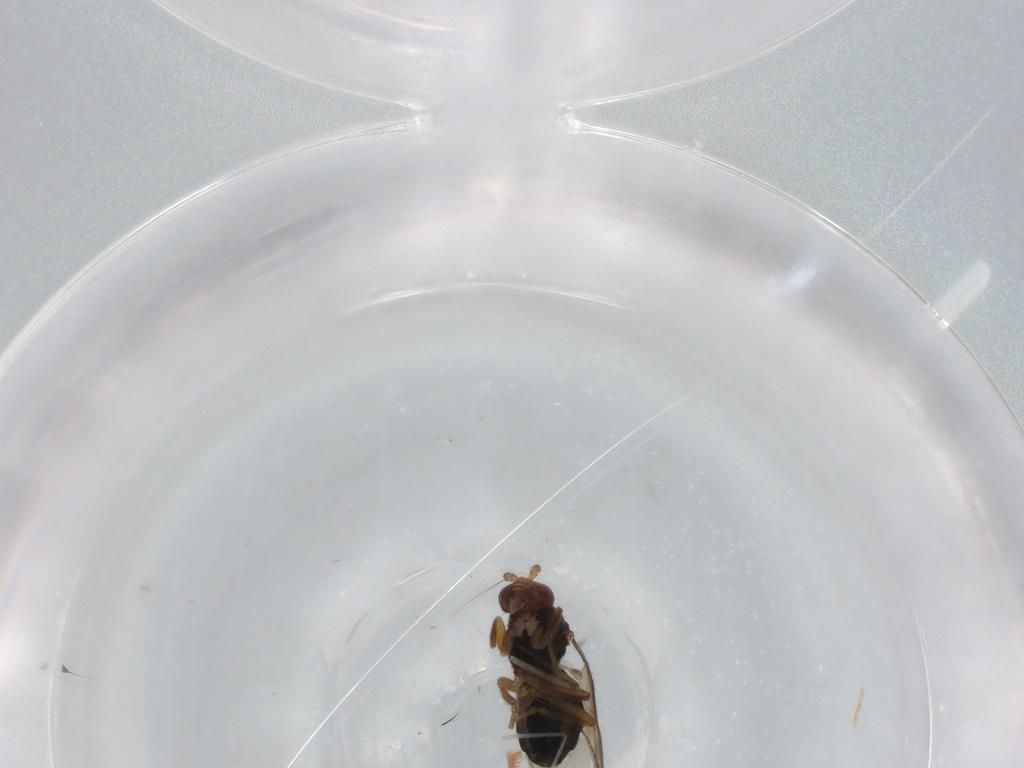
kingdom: Animalia
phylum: Arthropoda
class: Insecta
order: Diptera
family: Sphaeroceridae
